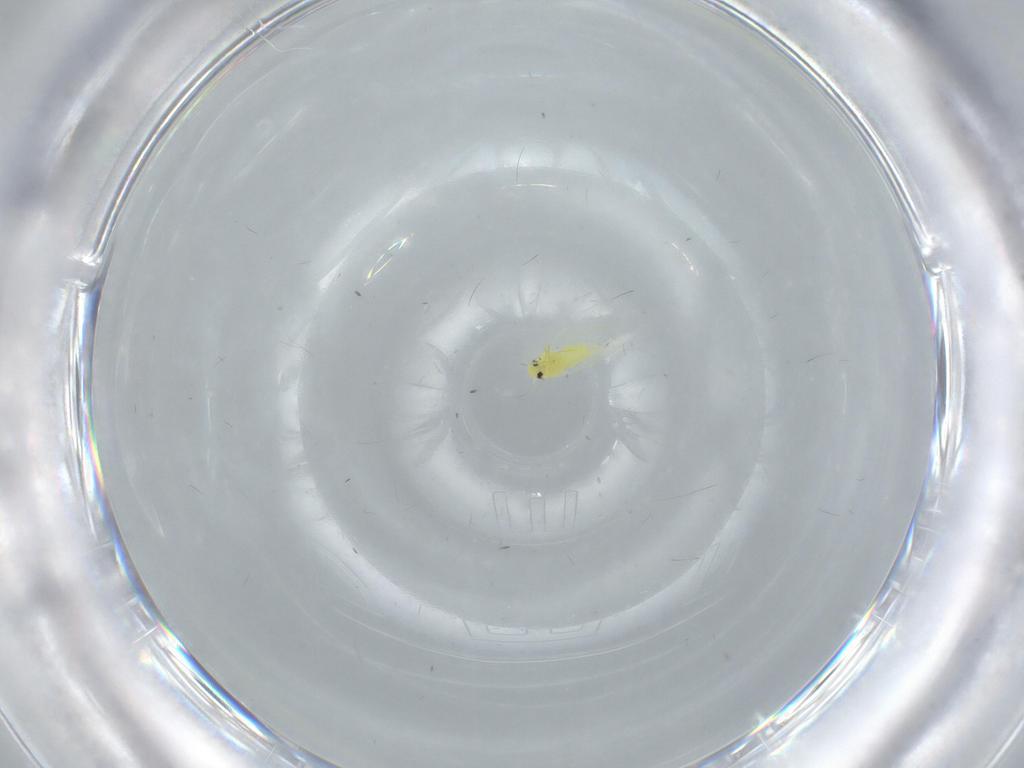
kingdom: Animalia
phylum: Arthropoda
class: Insecta
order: Hemiptera
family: Aleyrodidae
